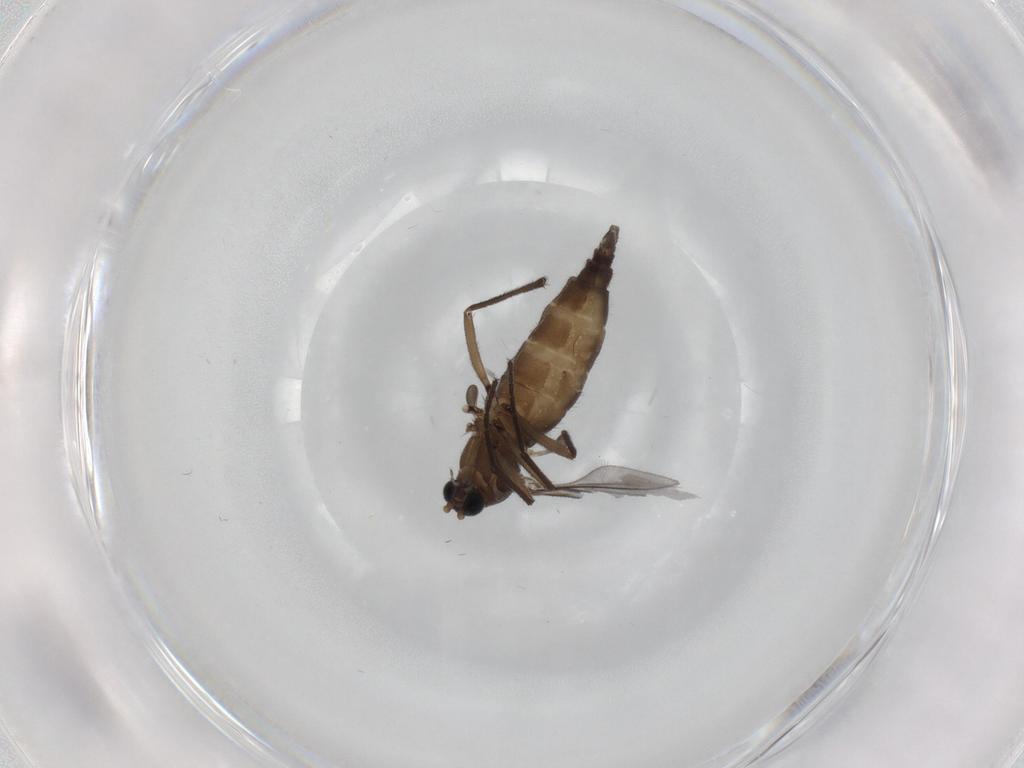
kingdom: Animalia
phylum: Arthropoda
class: Insecta
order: Diptera
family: Sciaridae
